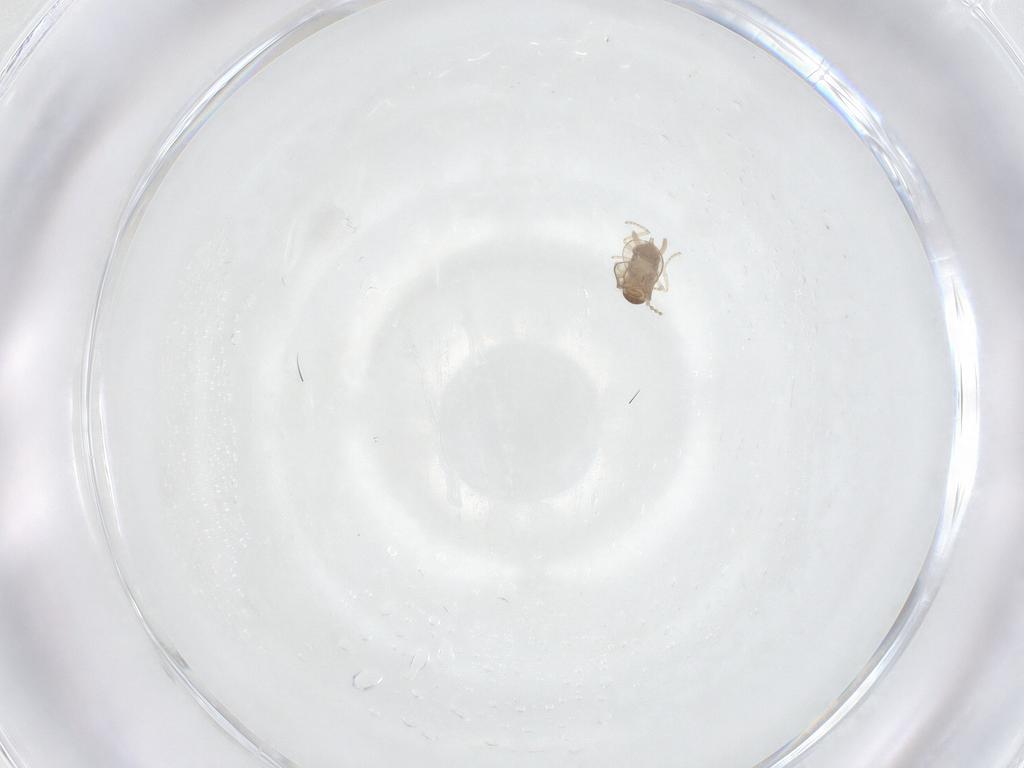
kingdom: Animalia
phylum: Arthropoda
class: Insecta
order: Diptera
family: Cecidomyiidae
